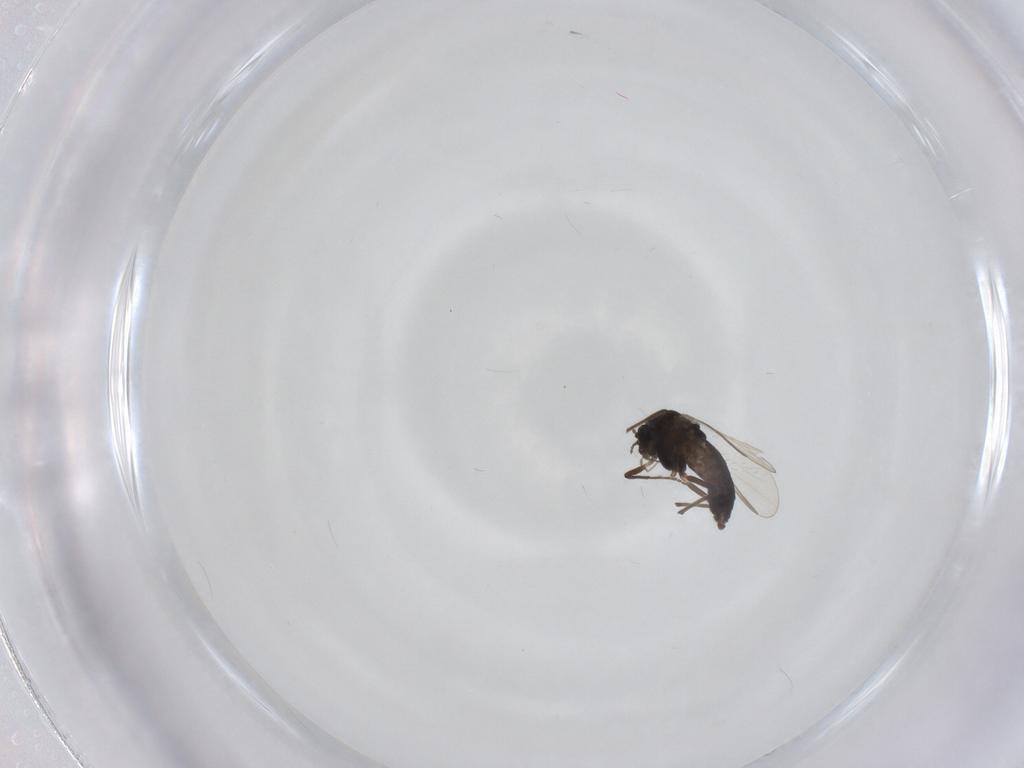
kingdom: Animalia
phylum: Arthropoda
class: Insecta
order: Diptera
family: Chironomidae
